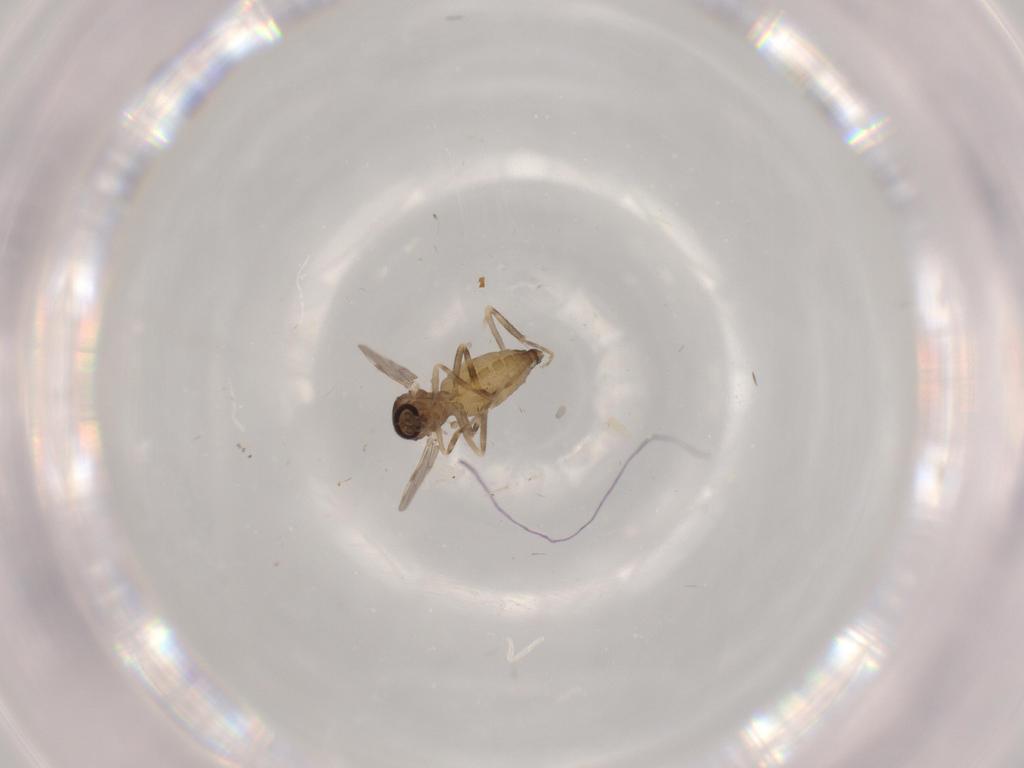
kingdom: Animalia
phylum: Arthropoda
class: Insecta
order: Diptera
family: Ceratopogonidae
